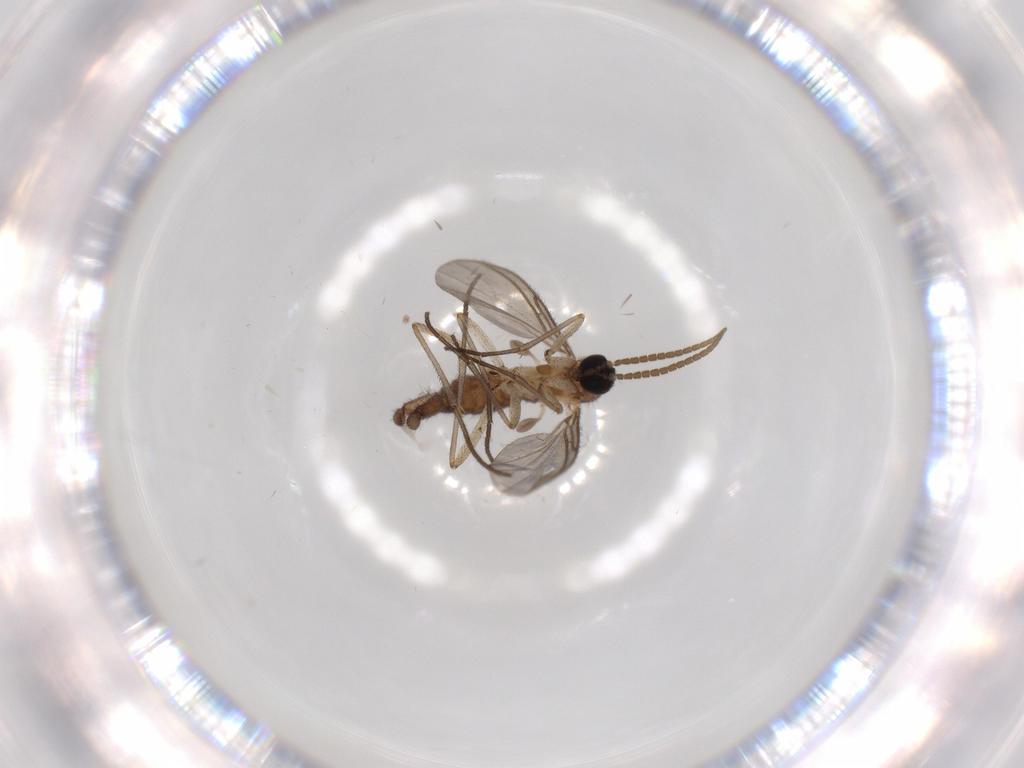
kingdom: Animalia
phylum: Arthropoda
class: Insecta
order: Diptera
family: Sciaridae
